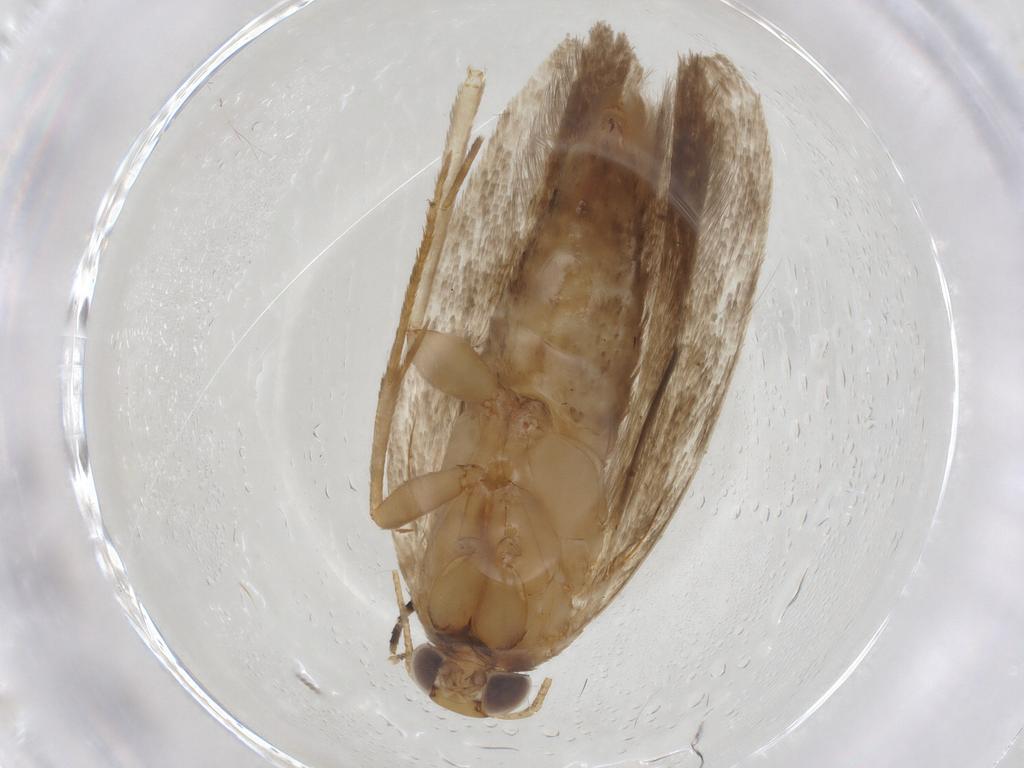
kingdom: Animalia
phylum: Arthropoda
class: Insecta
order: Lepidoptera
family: Gelechiidae
